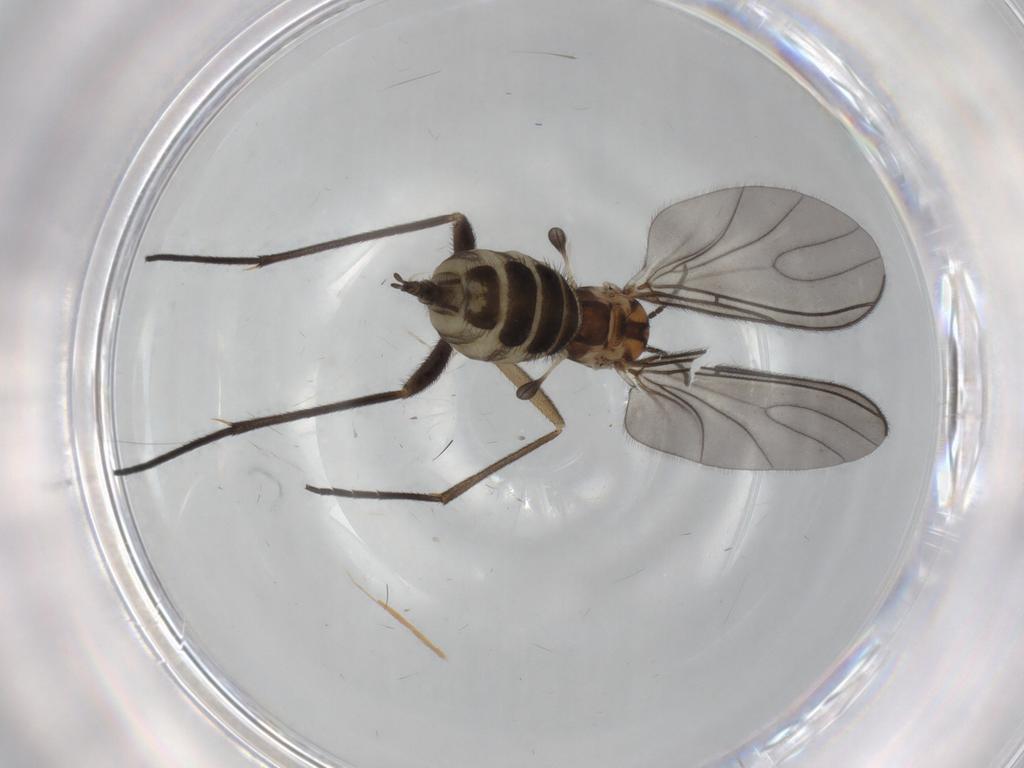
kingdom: Animalia
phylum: Arthropoda
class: Insecta
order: Diptera
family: Sciaridae
